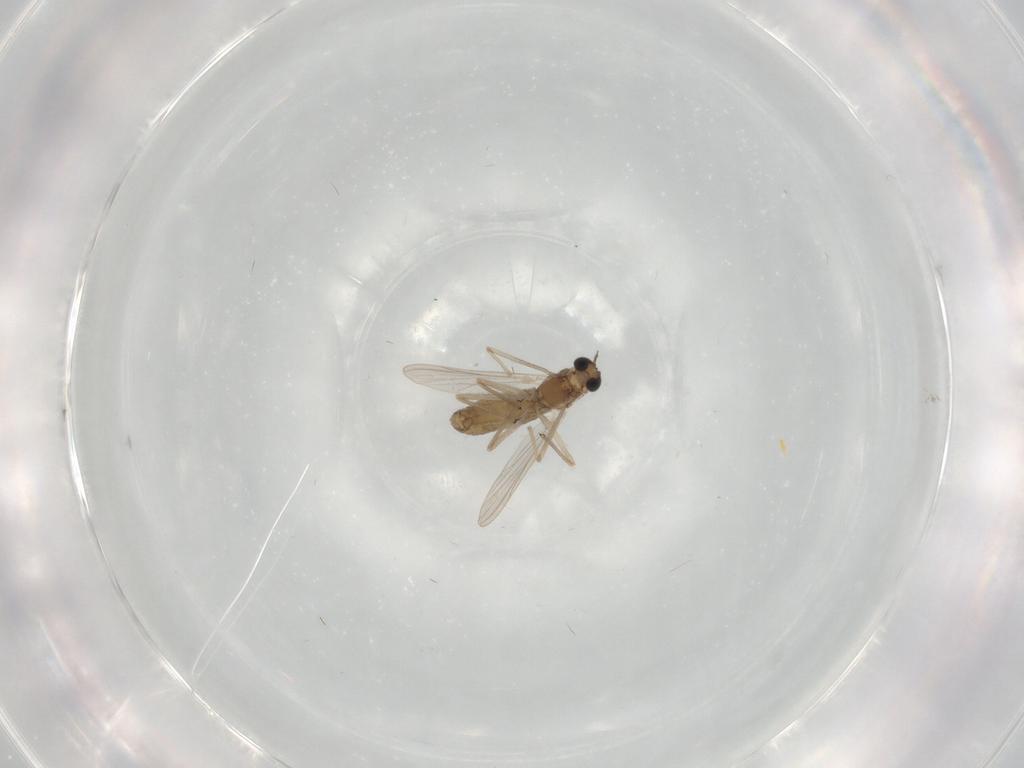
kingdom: Animalia
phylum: Arthropoda
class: Insecta
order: Diptera
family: Chironomidae
